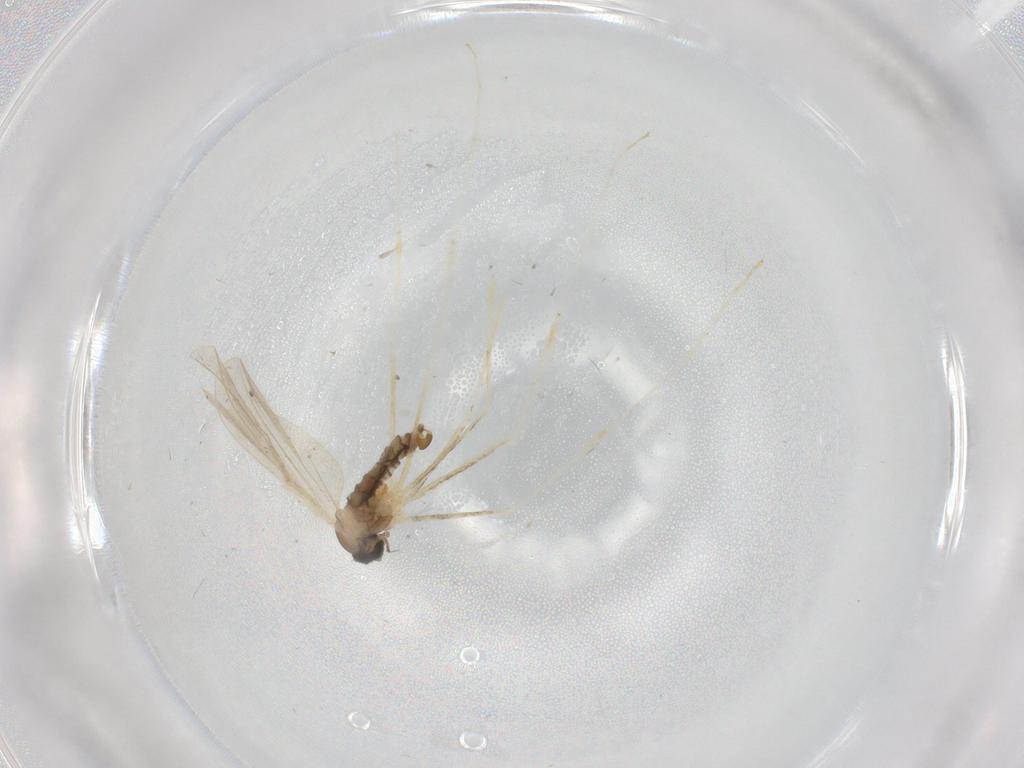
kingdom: Animalia
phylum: Arthropoda
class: Insecta
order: Diptera
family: Cecidomyiidae
